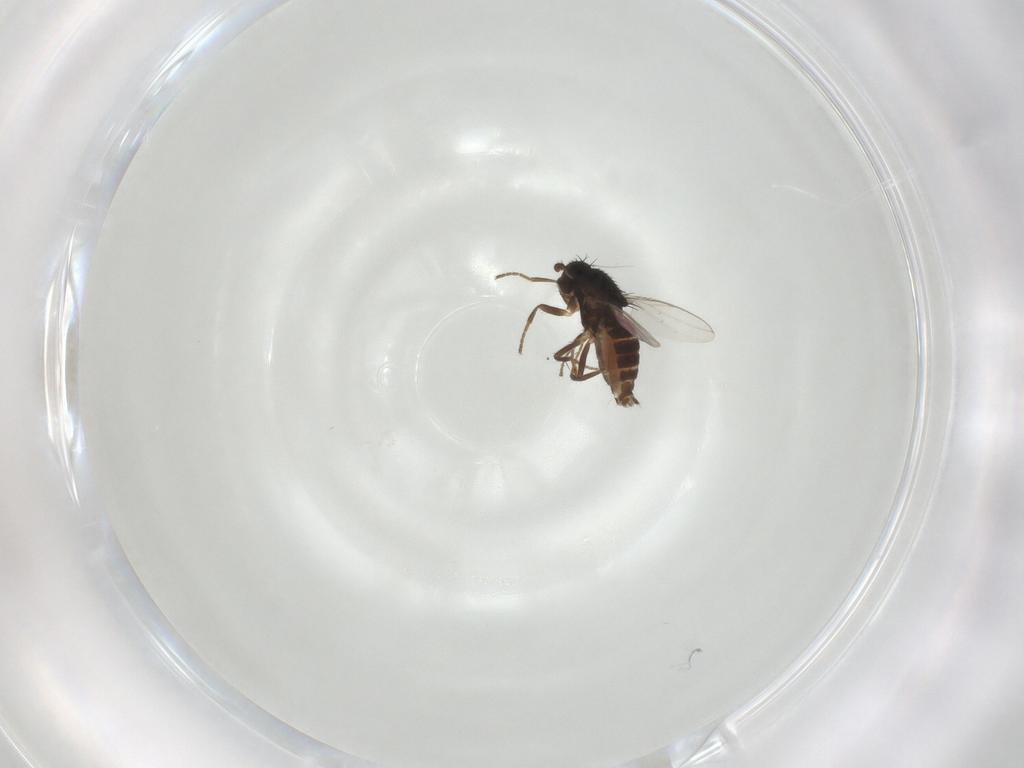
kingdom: Animalia
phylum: Arthropoda
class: Insecta
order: Diptera
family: Sphaeroceridae
